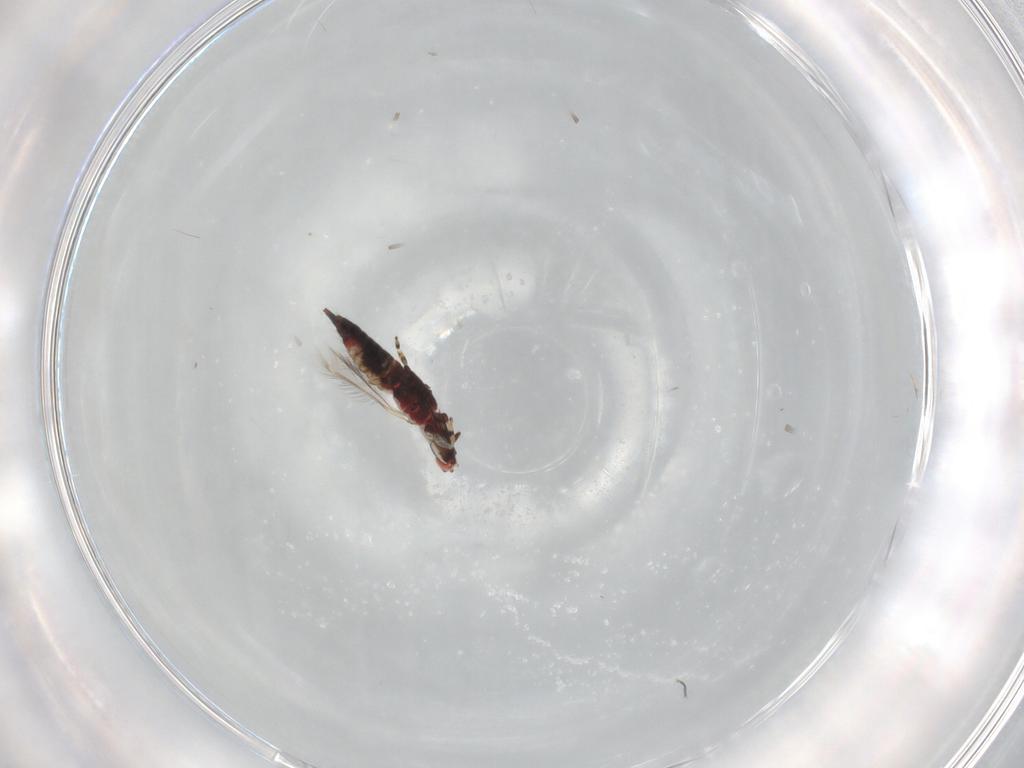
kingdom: Animalia
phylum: Arthropoda
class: Insecta
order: Thysanoptera
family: Phlaeothripidae
